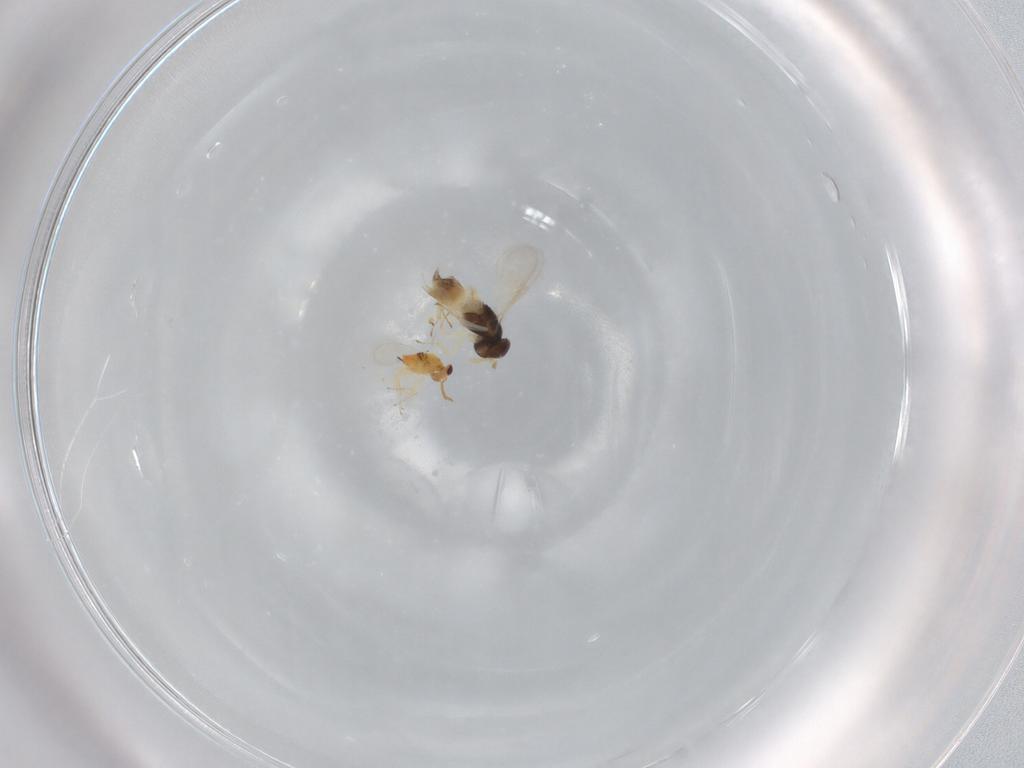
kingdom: Animalia
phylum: Arthropoda
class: Insecta
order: Hymenoptera
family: Aphelinidae
